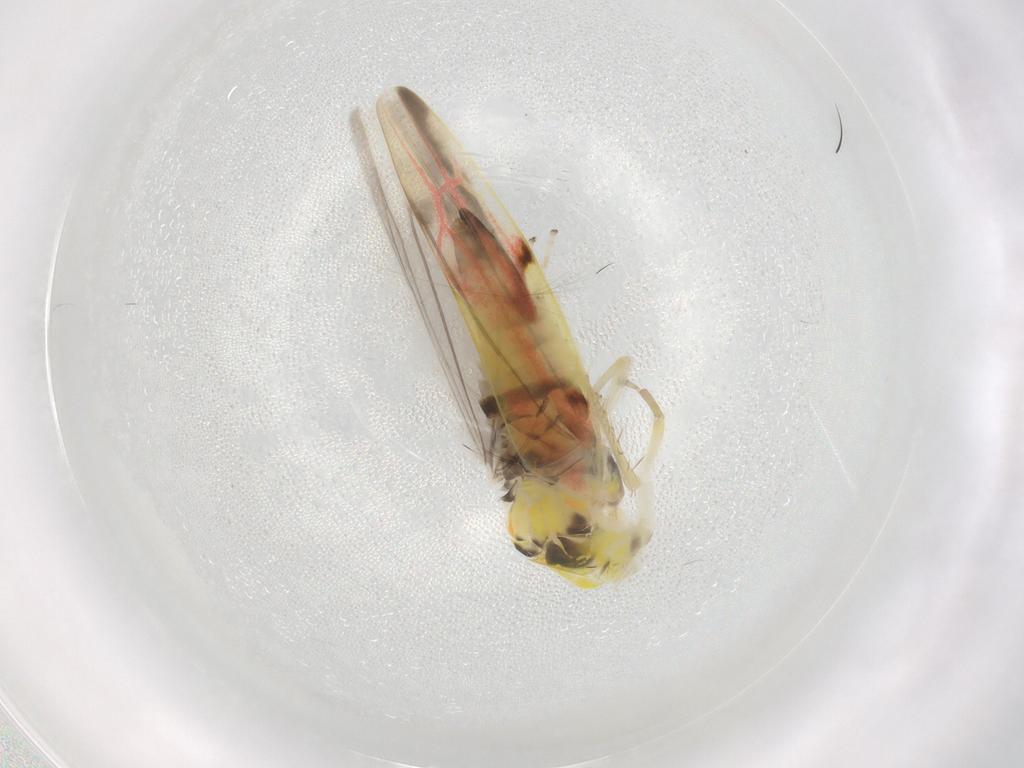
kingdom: Animalia
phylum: Arthropoda
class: Insecta
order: Hemiptera
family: Cicadellidae
